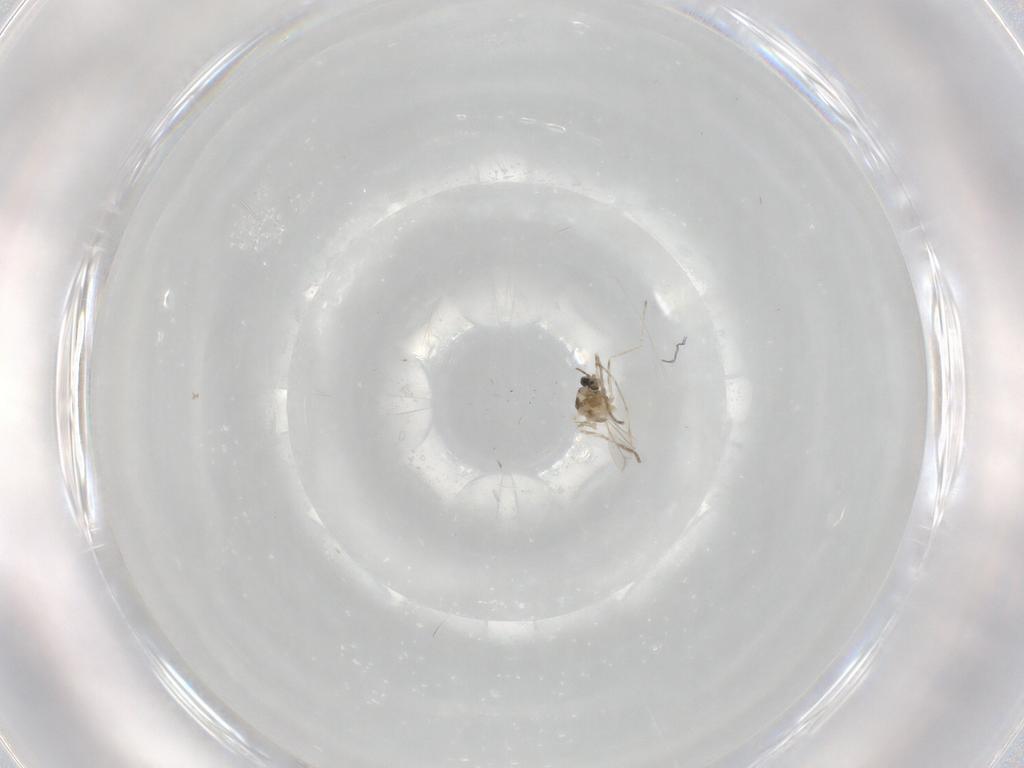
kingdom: Animalia
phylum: Arthropoda
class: Insecta
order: Diptera
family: Cecidomyiidae
